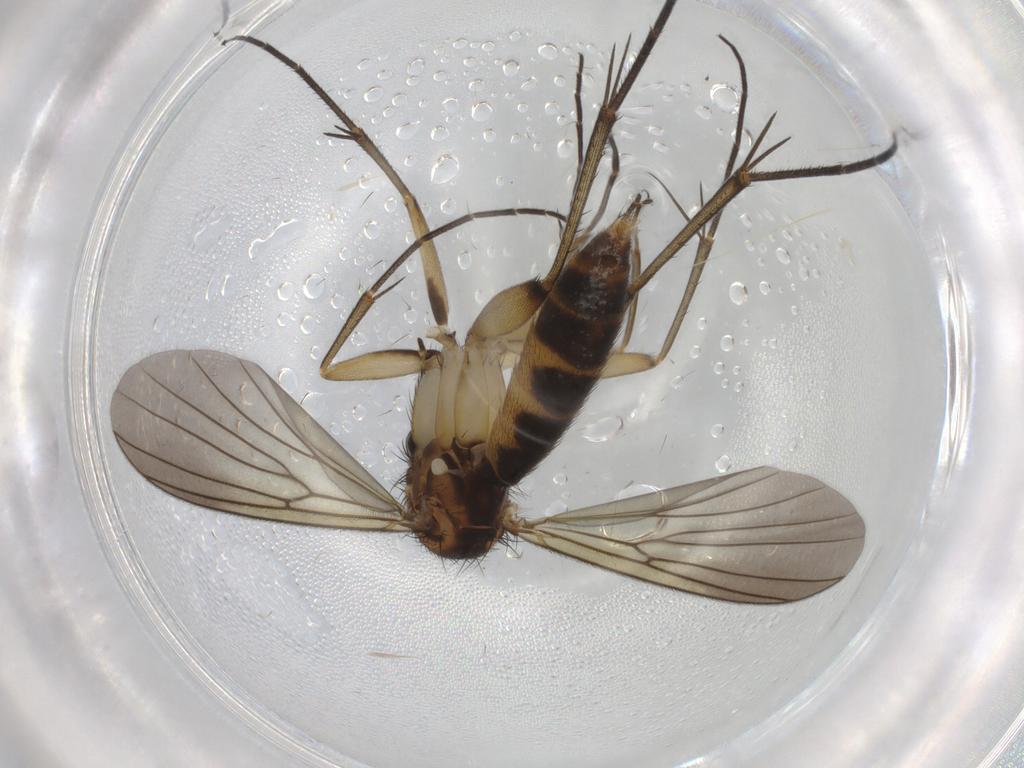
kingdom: Animalia
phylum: Arthropoda
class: Insecta
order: Diptera
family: Mycetophilidae
